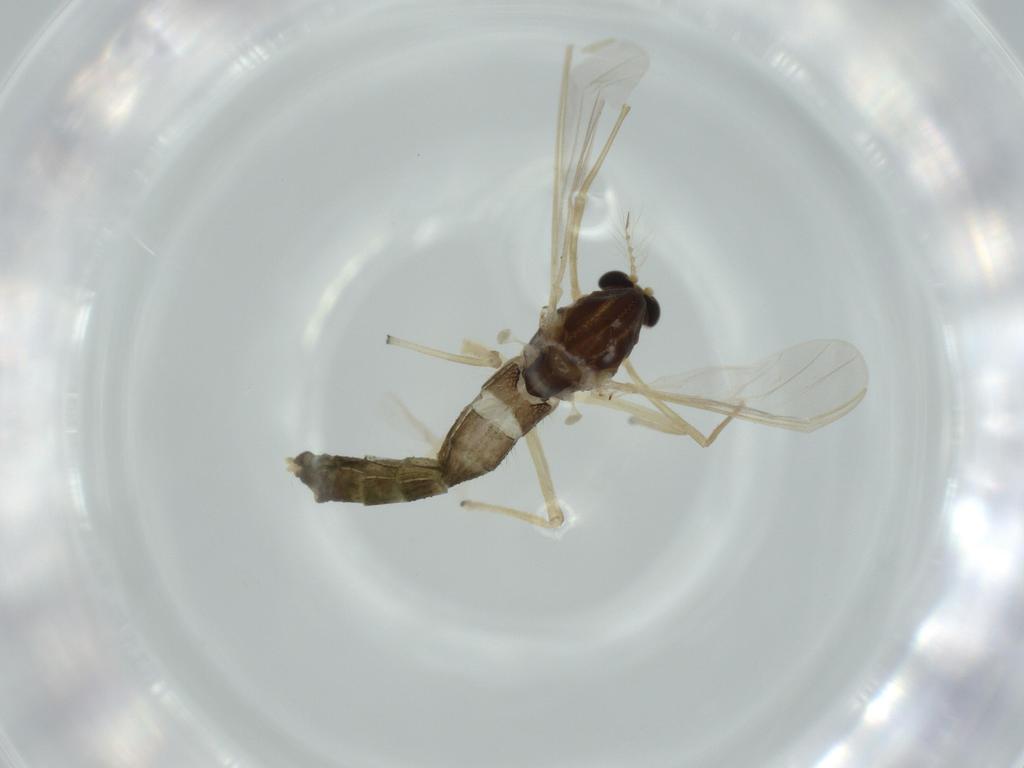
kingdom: Animalia
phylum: Arthropoda
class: Insecta
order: Diptera
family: Chironomidae
